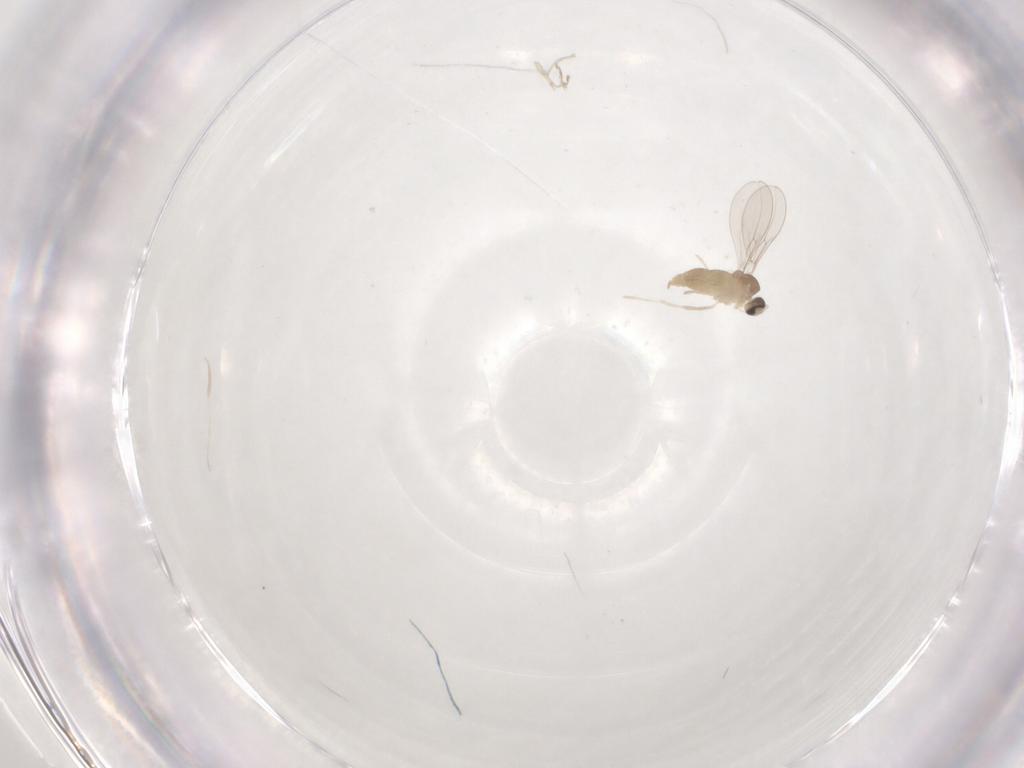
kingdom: Animalia
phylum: Arthropoda
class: Insecta
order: Diptera
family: Cecidomyiidae
